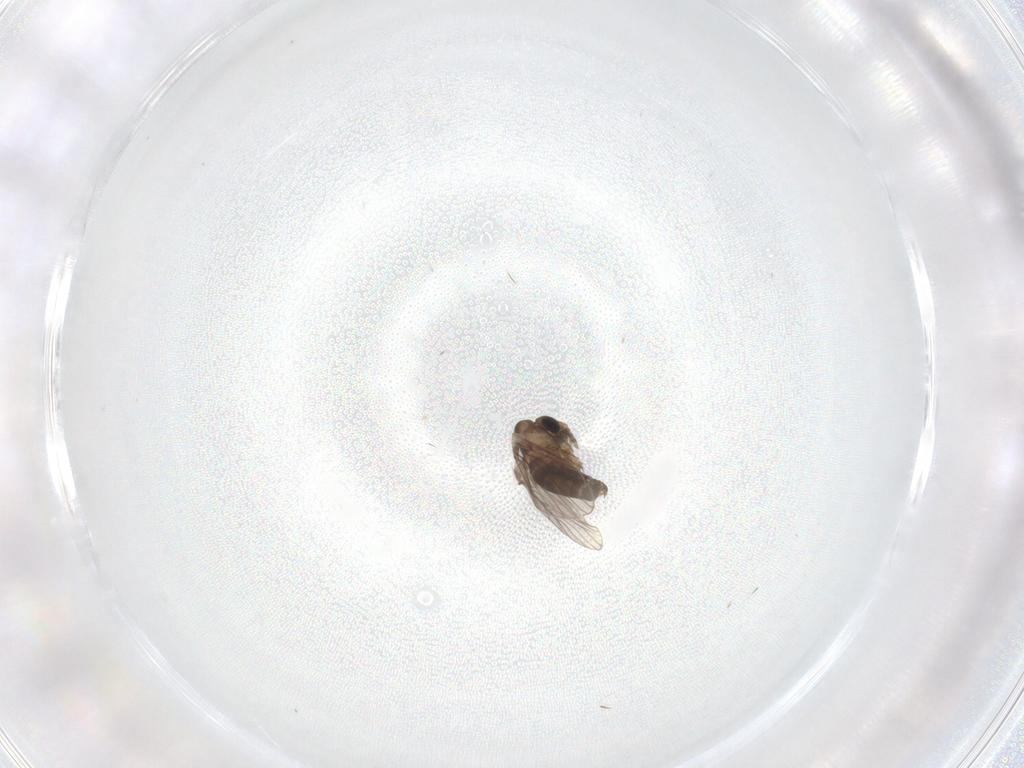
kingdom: Animalia
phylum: Arthropoda
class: Insecta
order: Diptera
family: Cecidomyiidae
